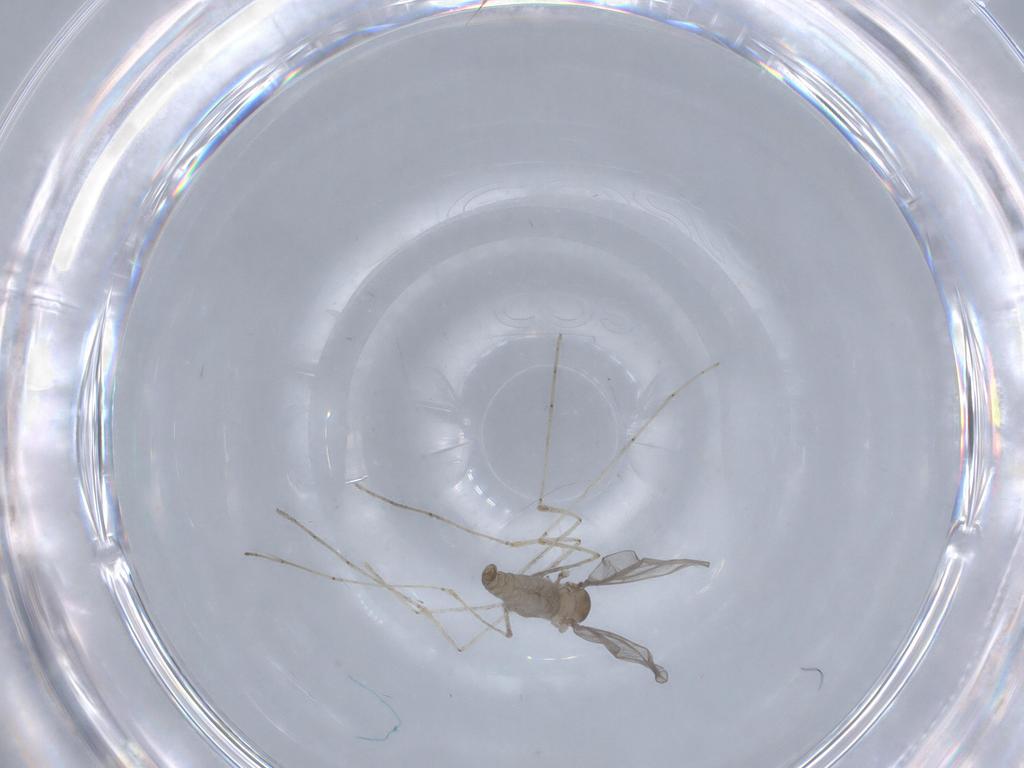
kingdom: Animalia
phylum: Arthropoda
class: Insecta
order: Diptera
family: Cecidomyiidae
